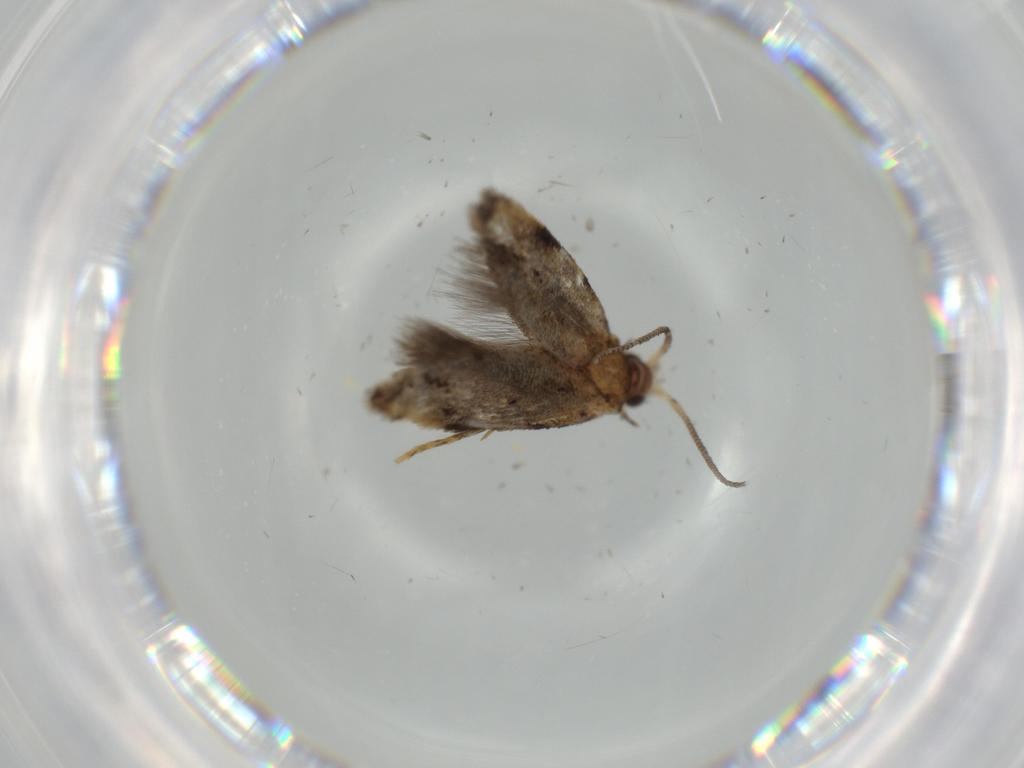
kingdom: Animalia
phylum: Arthropoda
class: Insecta
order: Lepidoptera
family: Tineidae
